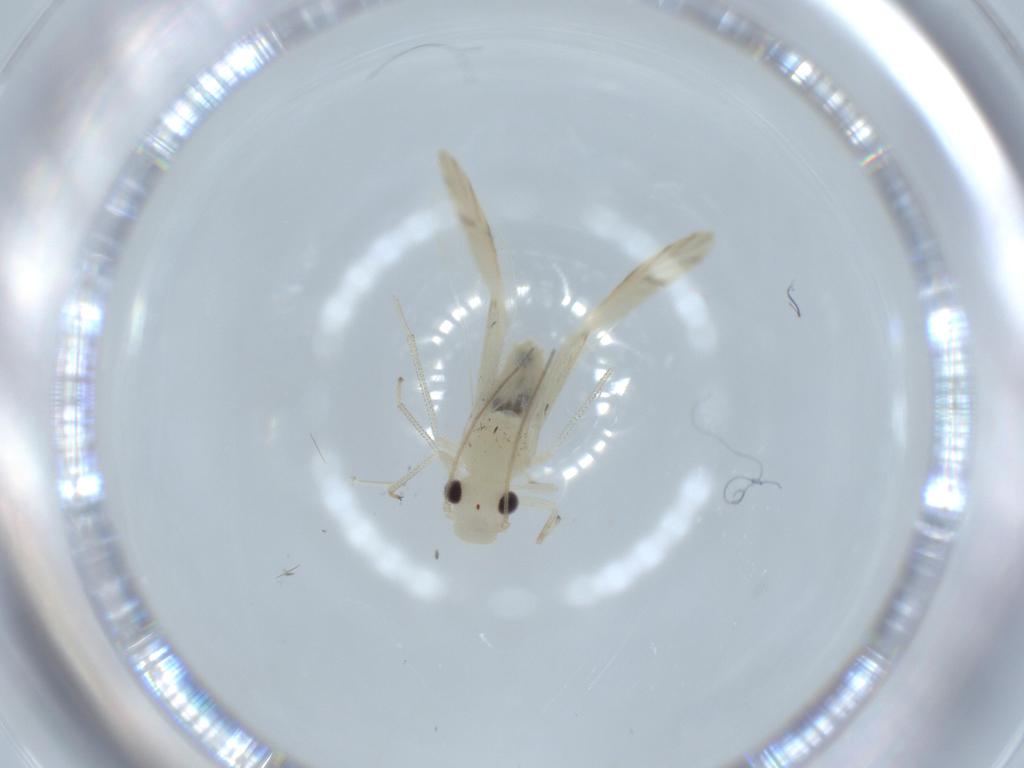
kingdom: Animalia
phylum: Arthropoda
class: Insecta
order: Psocodea
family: Caeciliusidae
